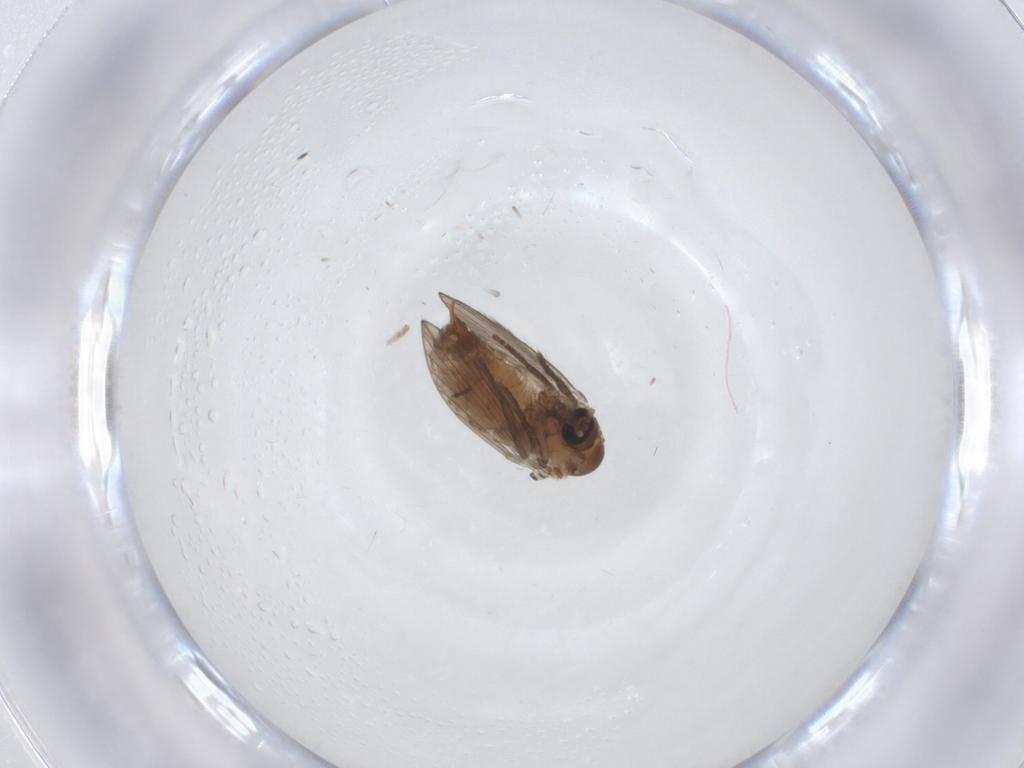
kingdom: Animalia
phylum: Arthropoda
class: Insecta
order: Diptera
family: Psychodidae
